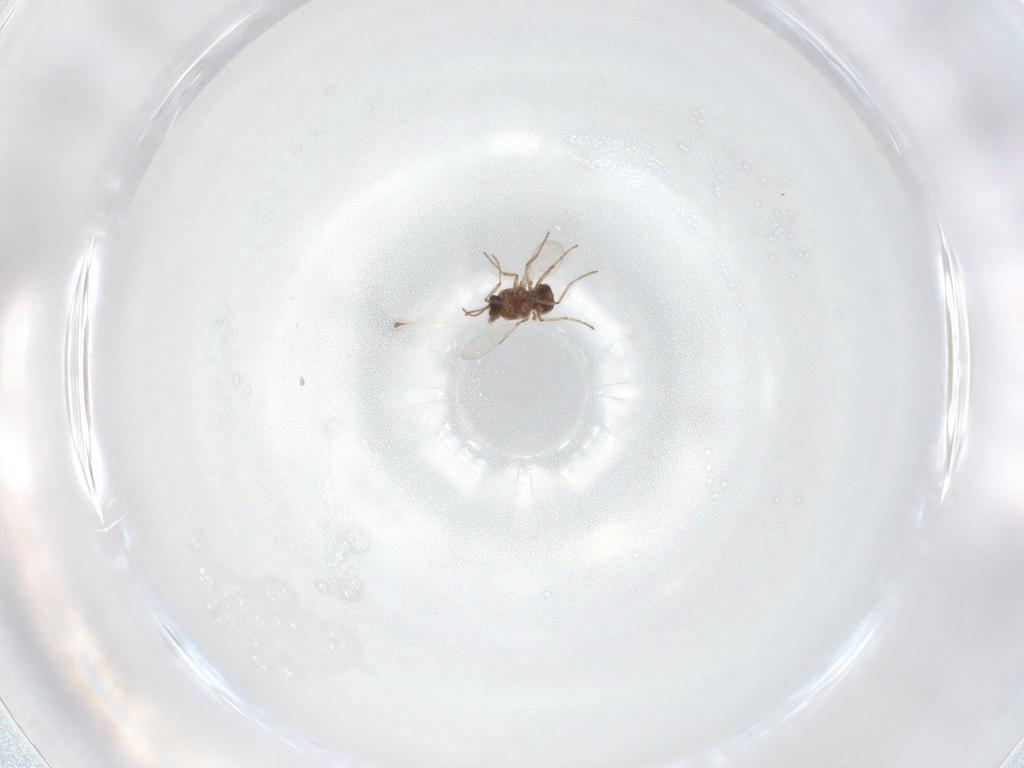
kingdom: Animalia
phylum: Arthropoda
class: Insecta
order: Diptera
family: Ceratopogonidae
